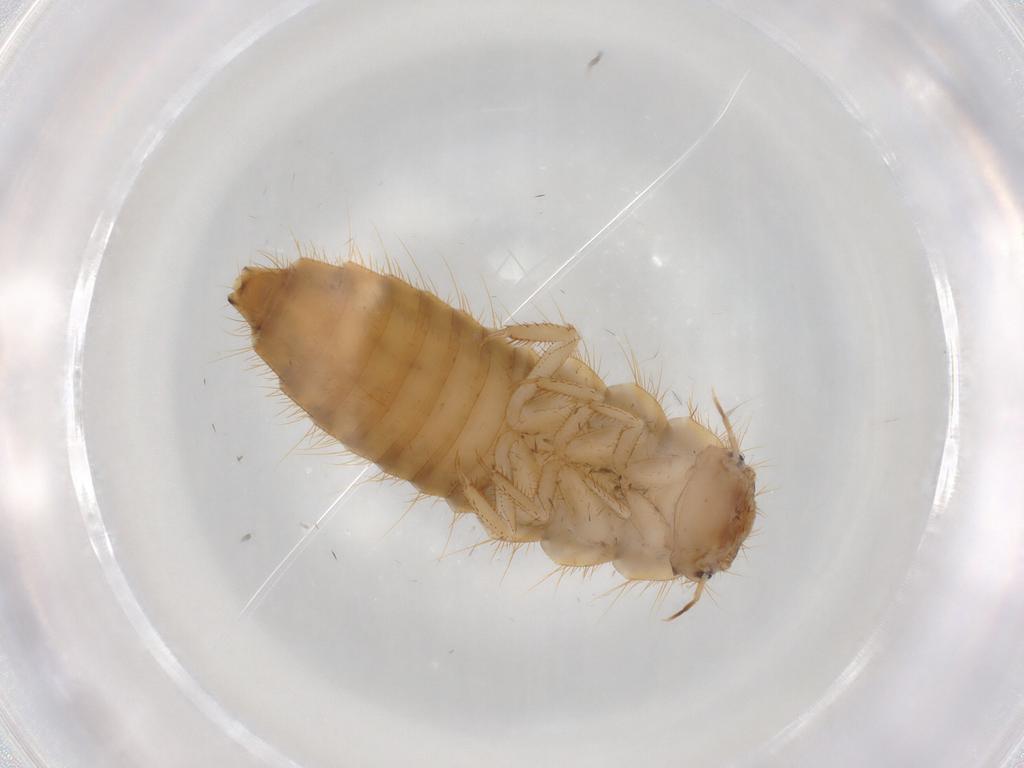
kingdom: Animalia
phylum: Arthropoda
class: Insecta
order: Coleoptera
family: Scirtidae
